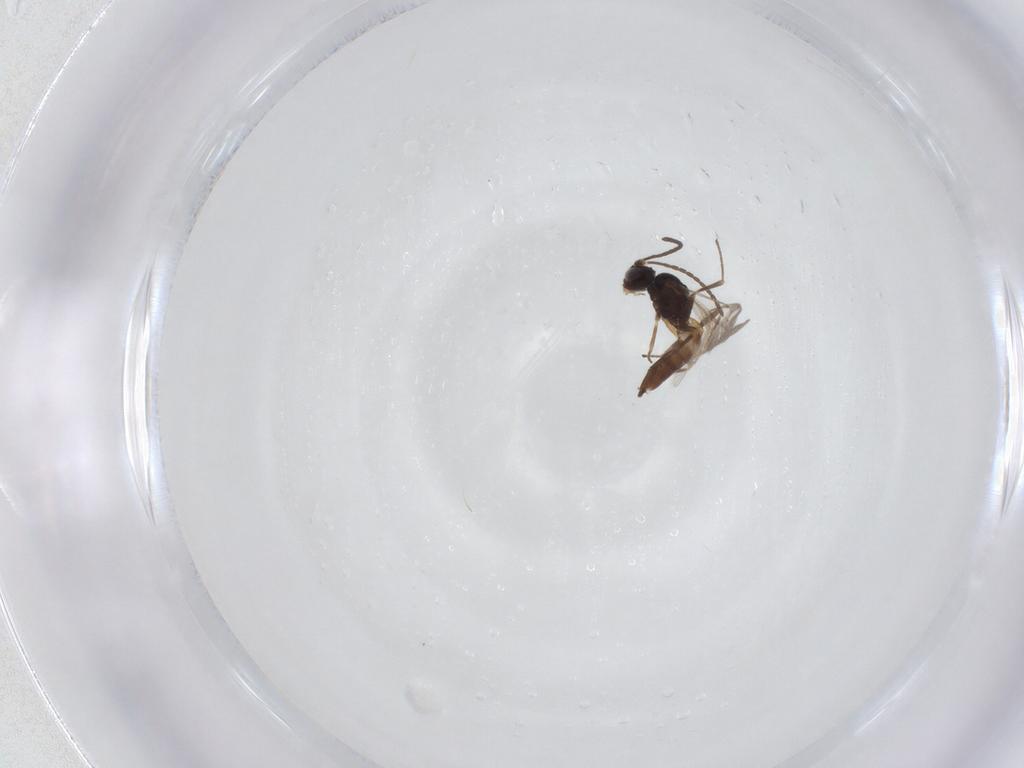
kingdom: Animalia
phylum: Arthropoda
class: Insecta
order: Hymenoptera
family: Braconidae
